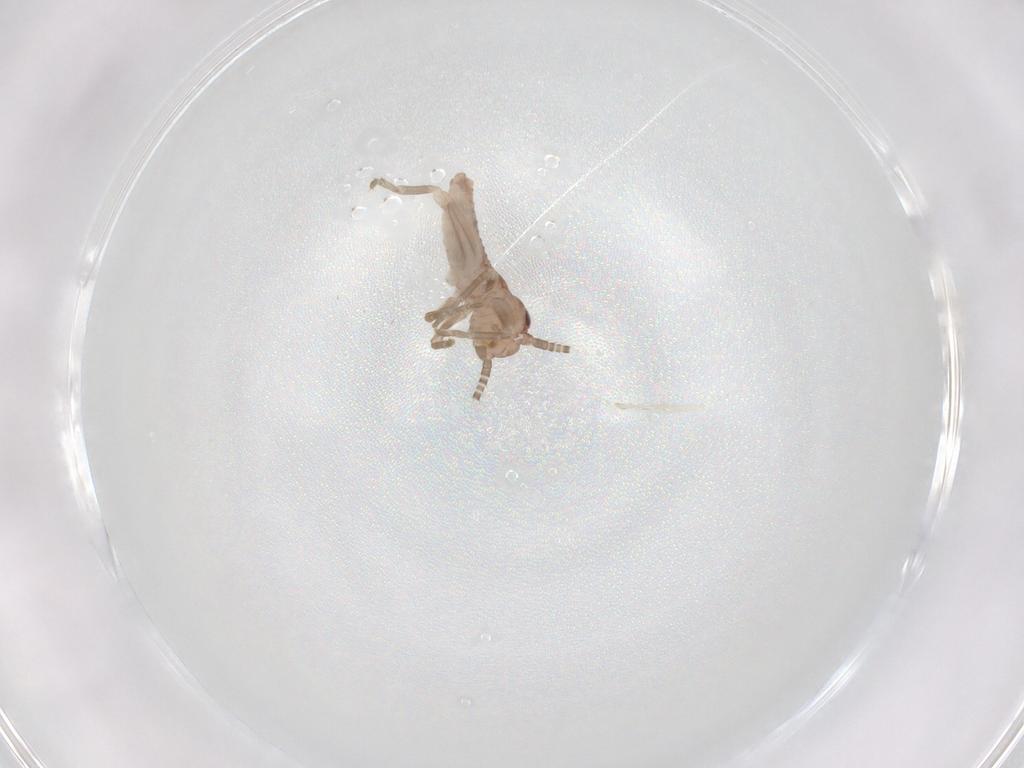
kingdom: Animalia
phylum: Arthropoda
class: Insecta
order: Orthoptera
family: Gryllidae
